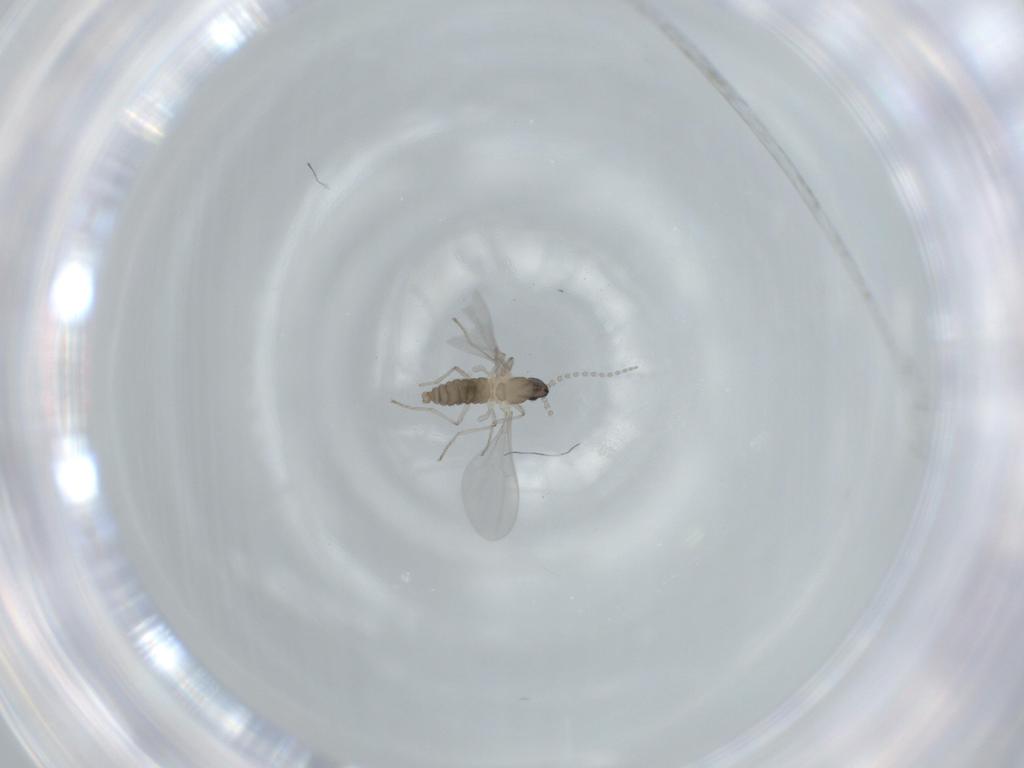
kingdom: Animalia
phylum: Arthropoda
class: Insecta
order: Diptera
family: Cecidomyiidae
